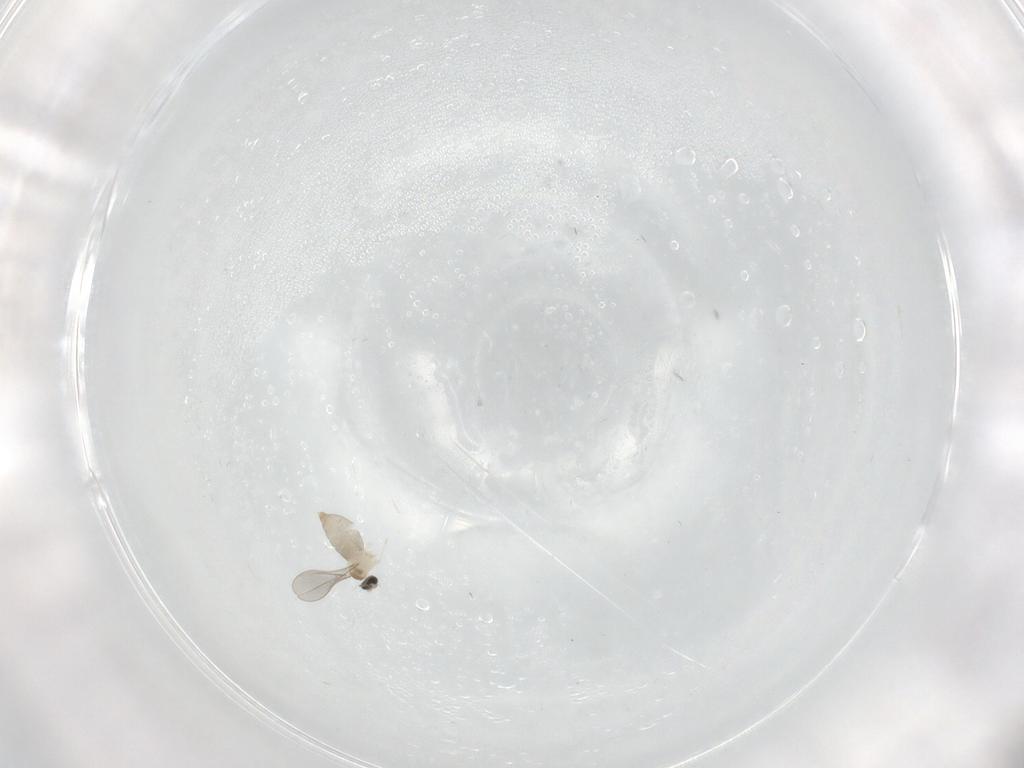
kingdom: Animalia
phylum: Arthropoda
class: Insecta
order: Diptera
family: Cecidomyiidae
